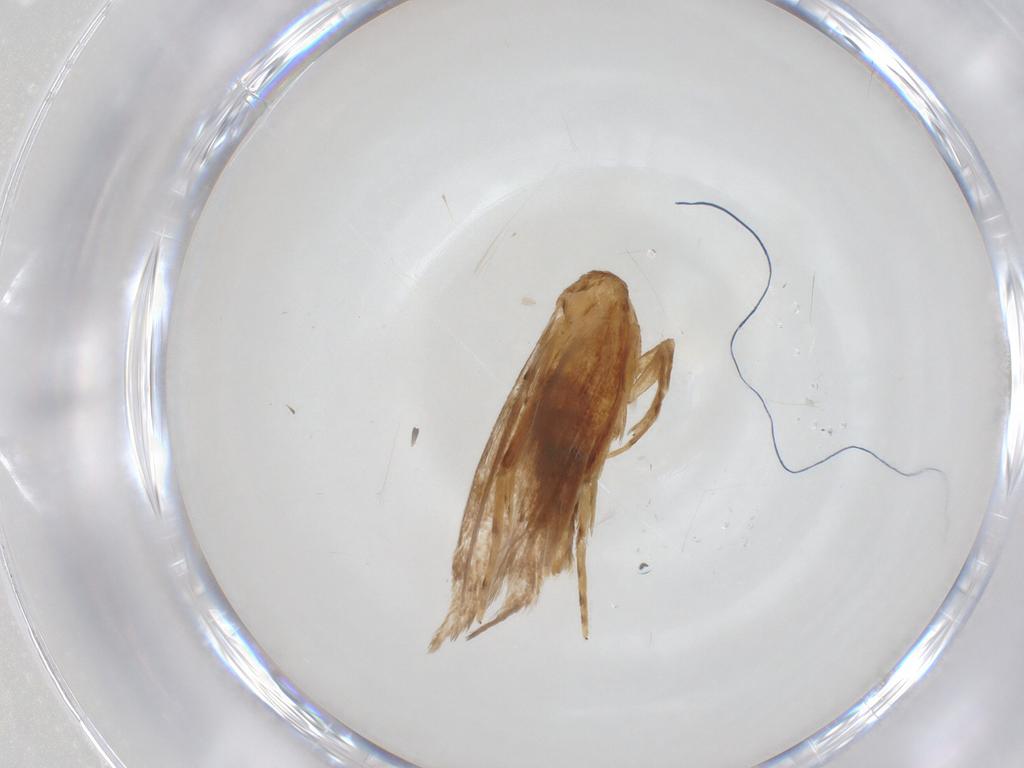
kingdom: Animalia
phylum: Arthropoda
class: Insecta
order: Lepidoptera
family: Cosmopterigidae
